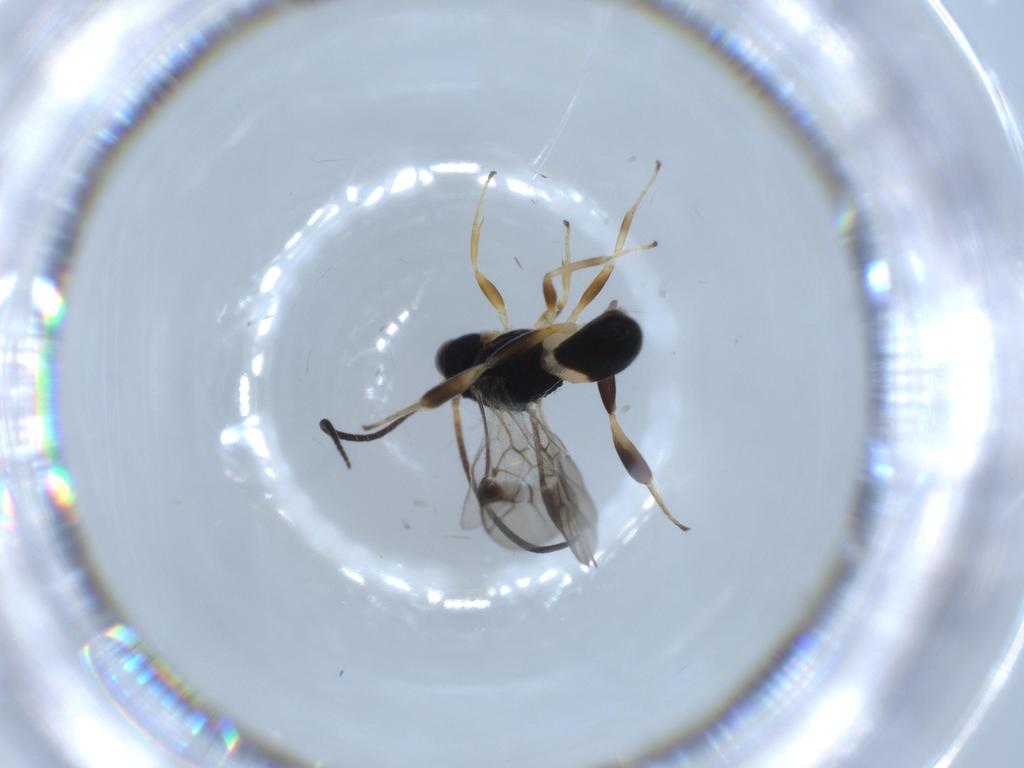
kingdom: Animalia
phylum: Arthropoda
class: Insecta
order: Hymenoptera
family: Braconidae
